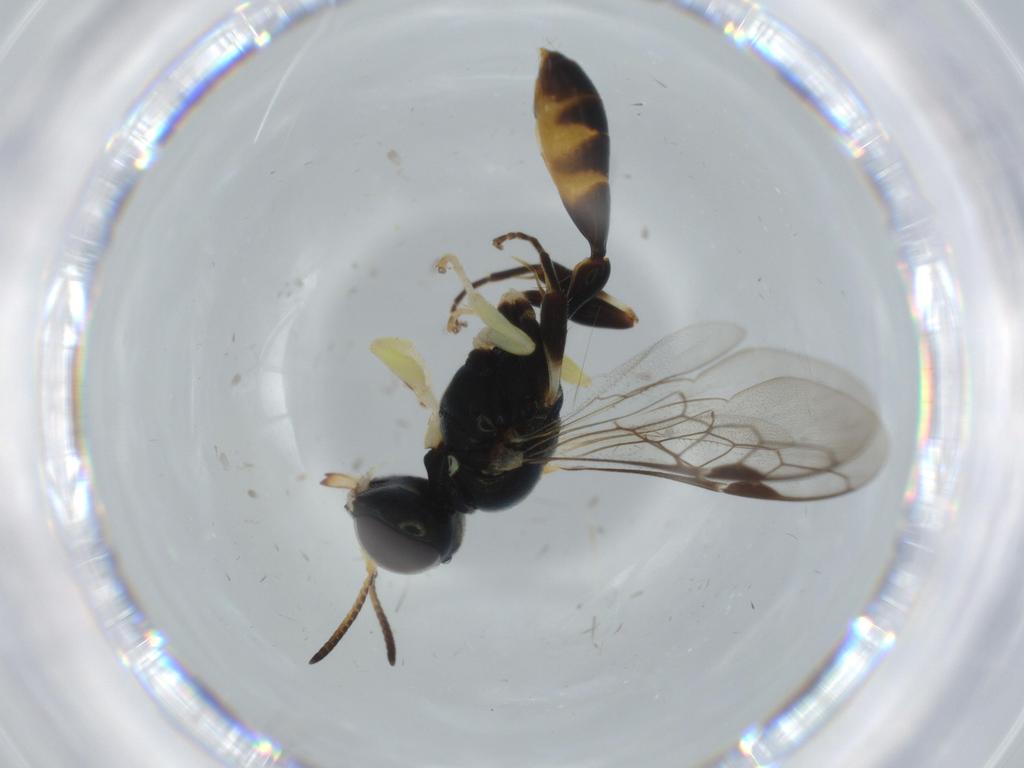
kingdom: Animalia
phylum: Arthropoda
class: Insecta
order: Hymenoptera
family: Crabronidae
